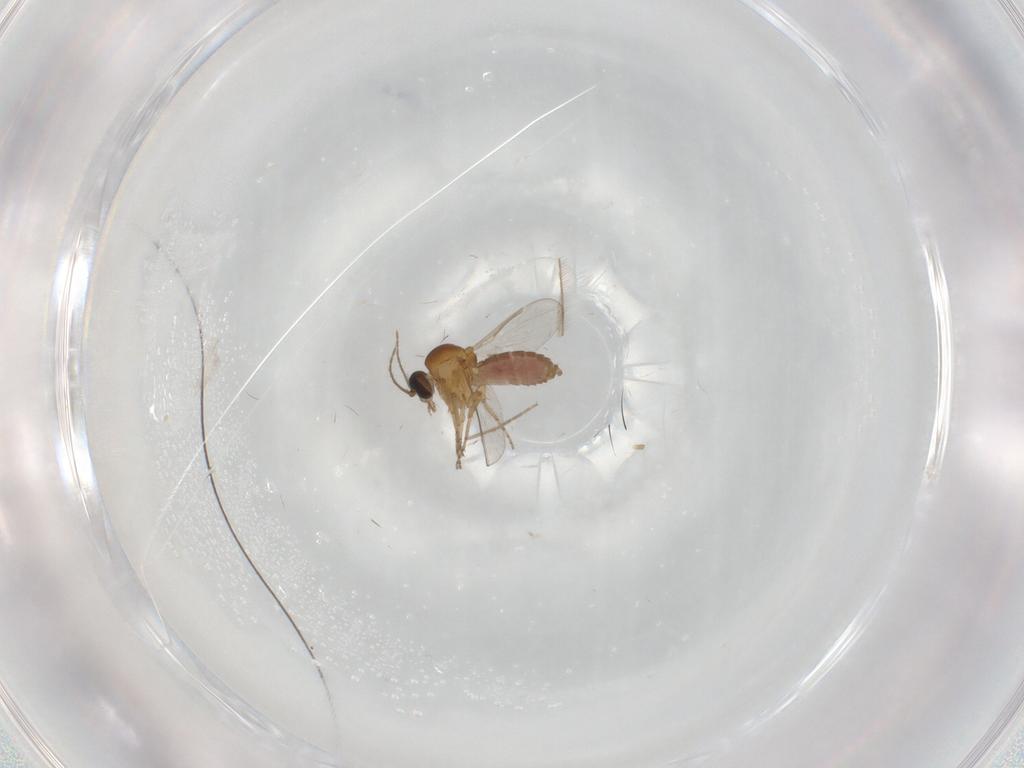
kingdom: Animalia
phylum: Arthropoda
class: Insecta
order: Diptera
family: Ceratopogonidae
